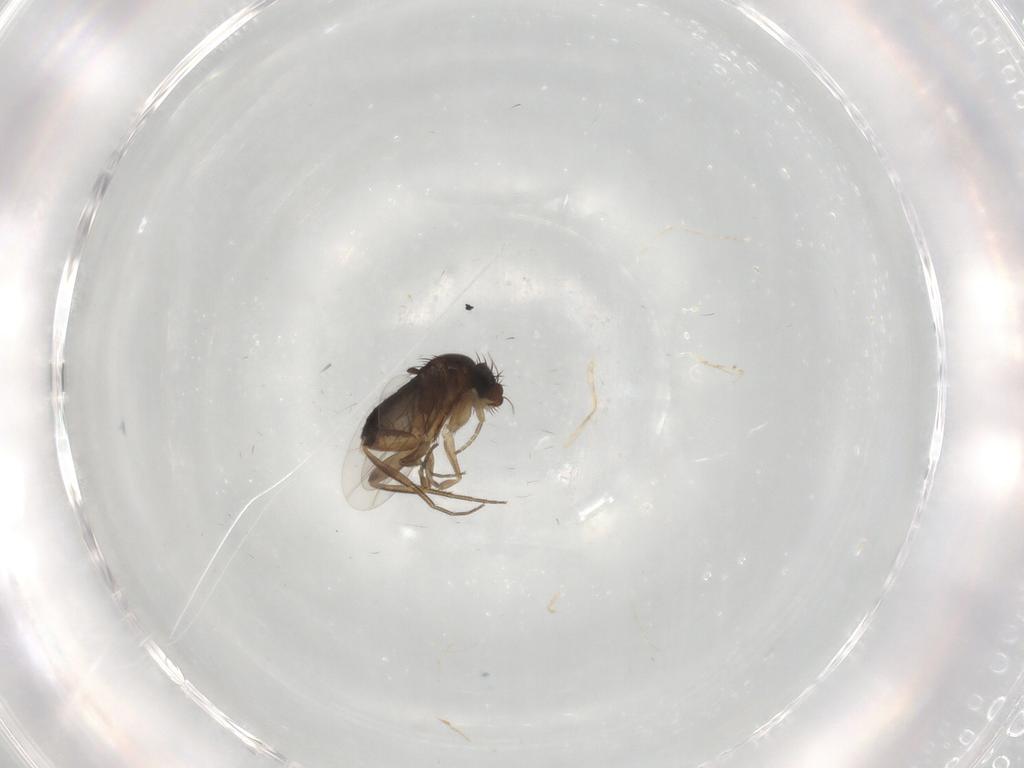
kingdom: Animalia
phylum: Arthropoda
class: Insecta
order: Diptera
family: Phoridae
